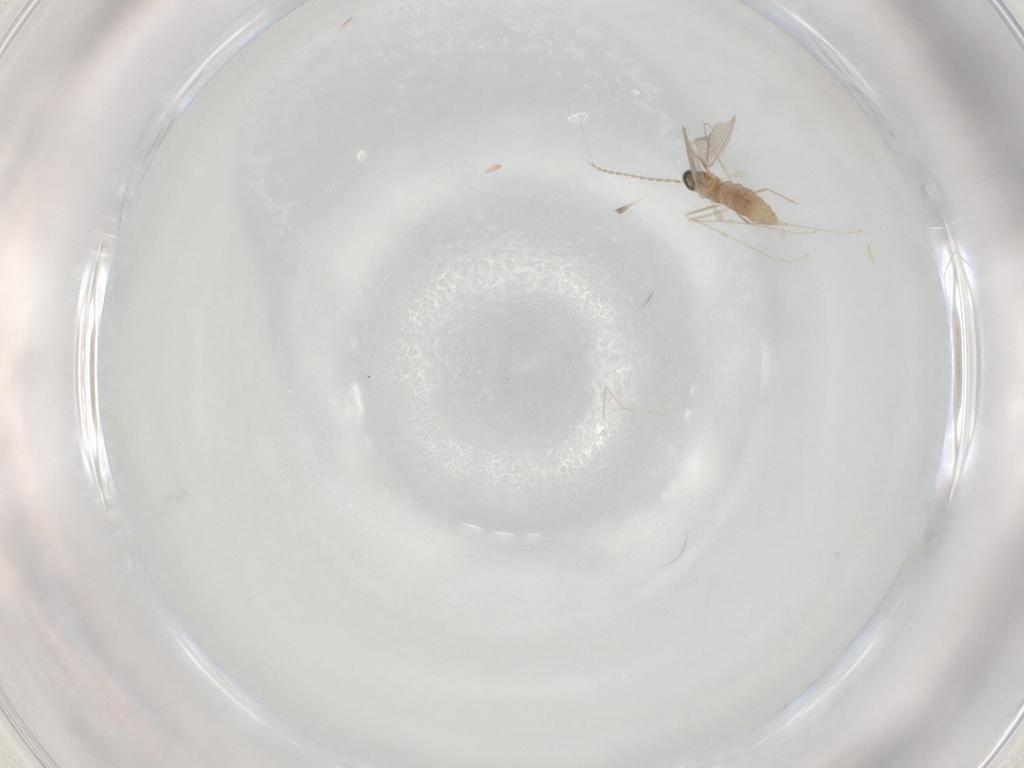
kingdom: Animalia
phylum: Arthropoda
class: Insecta
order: Diptera
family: Cecidomyiidae
